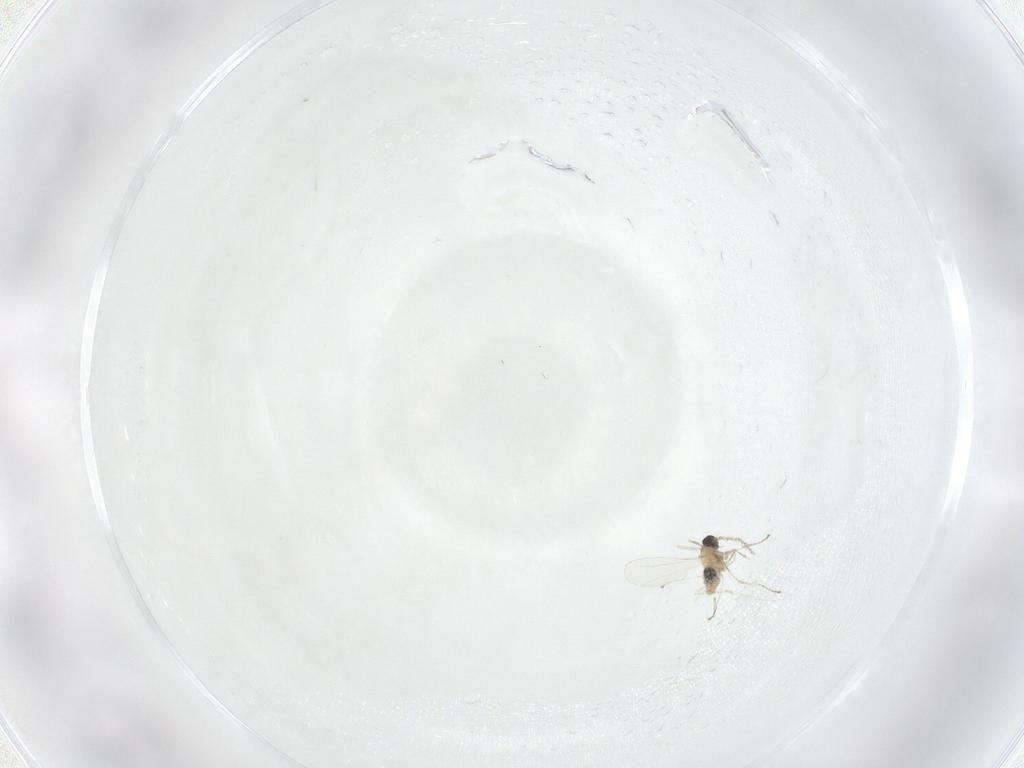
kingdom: Animalia
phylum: Arthropoda
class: Insecta
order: Diptera
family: Cecidomyiidae
